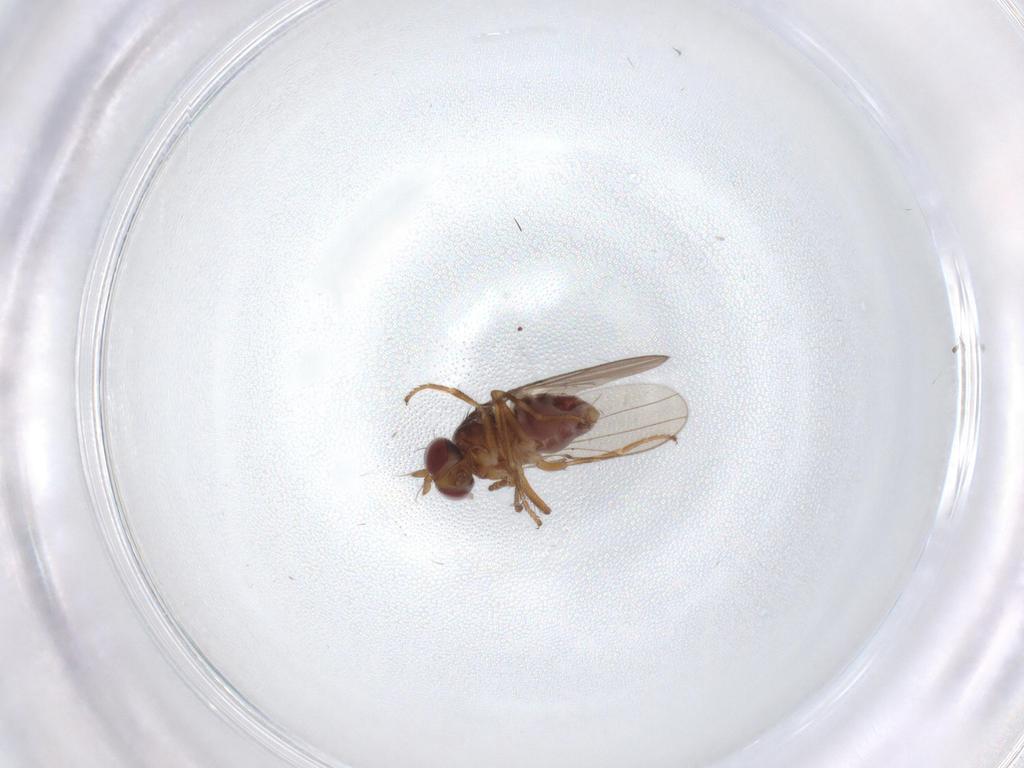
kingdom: Animalia
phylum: Arthropoda
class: Insecta
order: Diptera
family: Ephydridae
